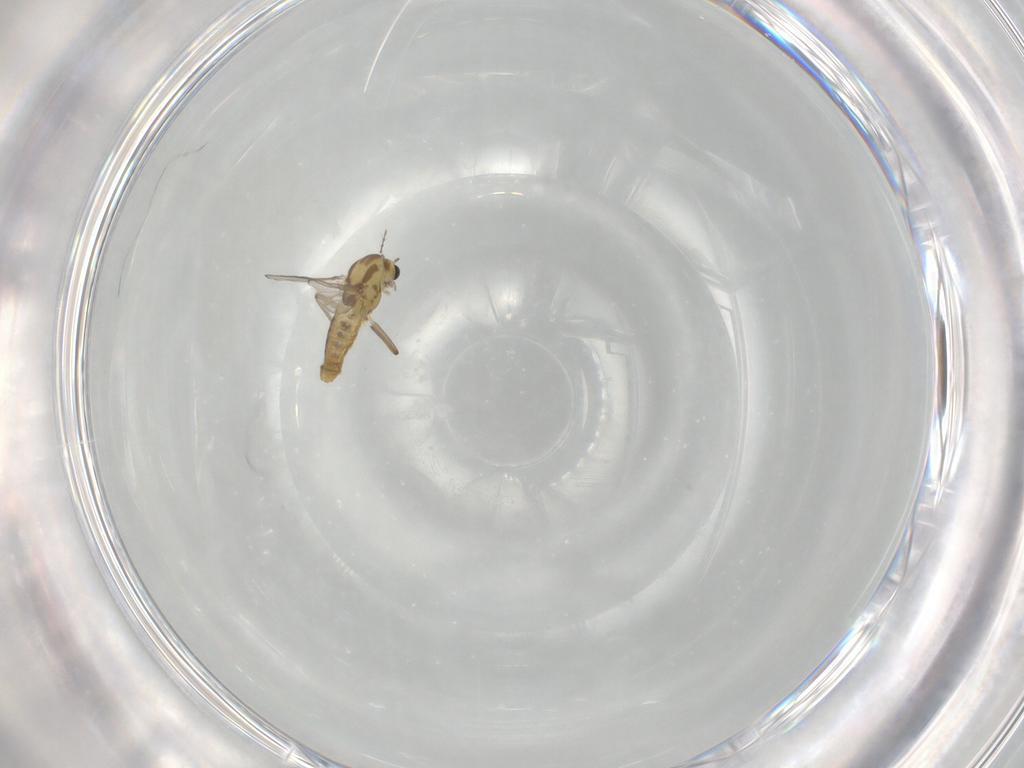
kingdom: Animalia
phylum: Arthropoda
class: Insecta
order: Diptera
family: Chironomidae
